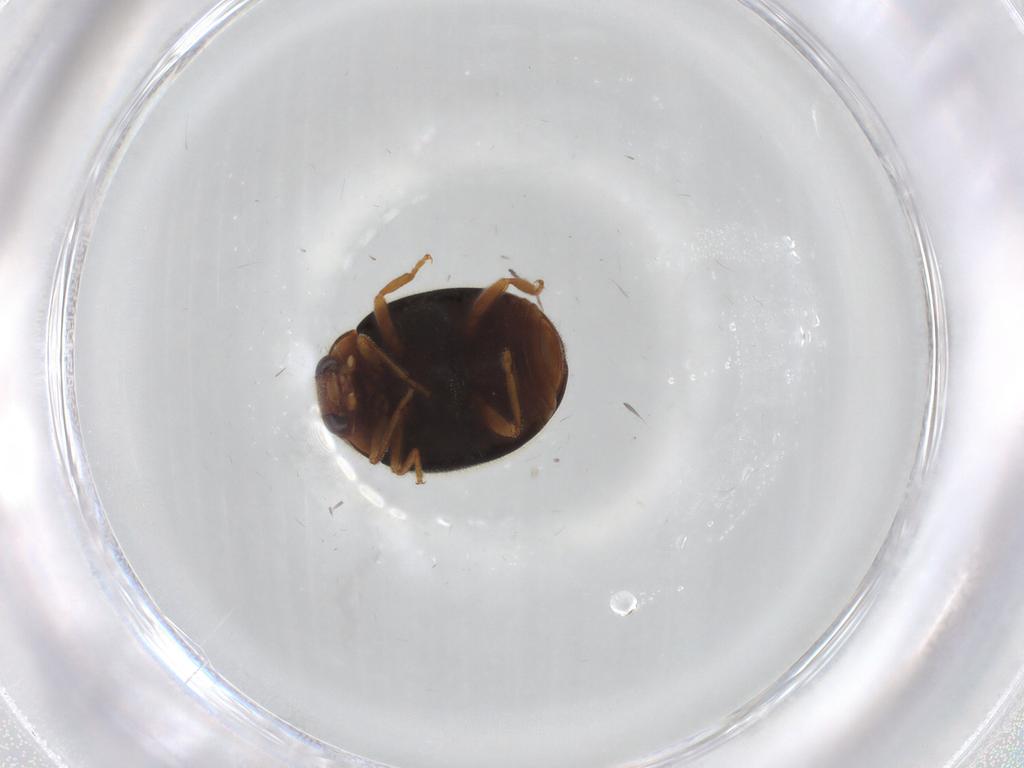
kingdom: Animalia
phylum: Arthropoda
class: Insecta
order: Coleoptera
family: Coccinellidae
